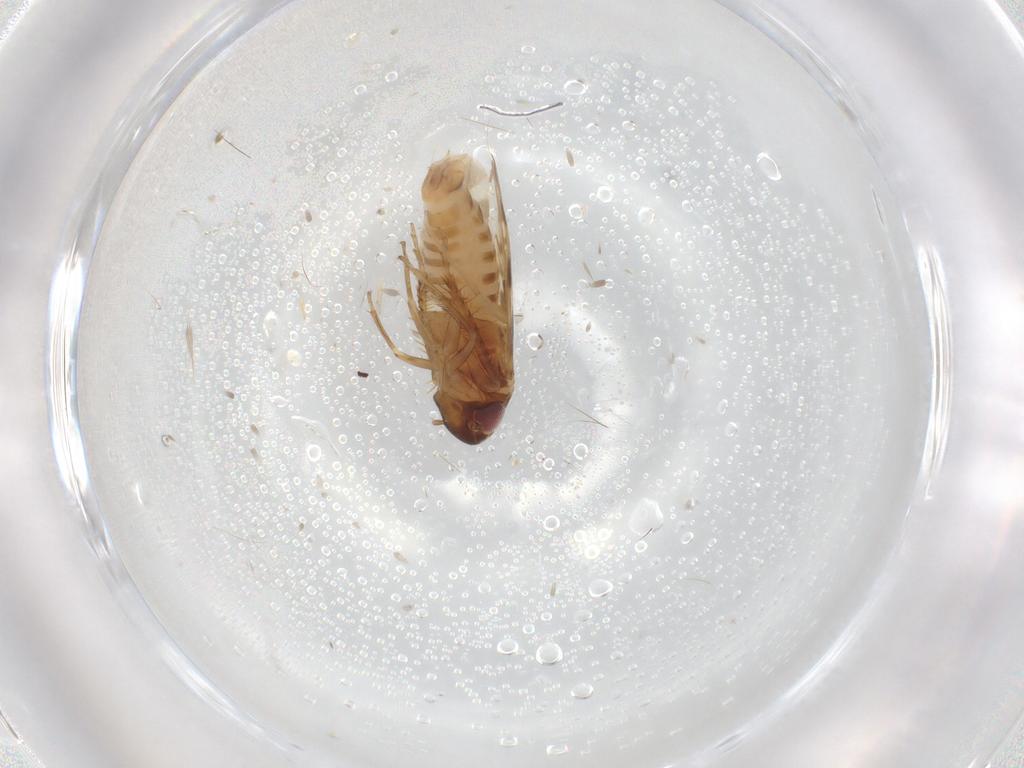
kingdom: Animalia
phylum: Arthropoda
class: Insecta
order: Hemiptera
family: Cicadellidae
